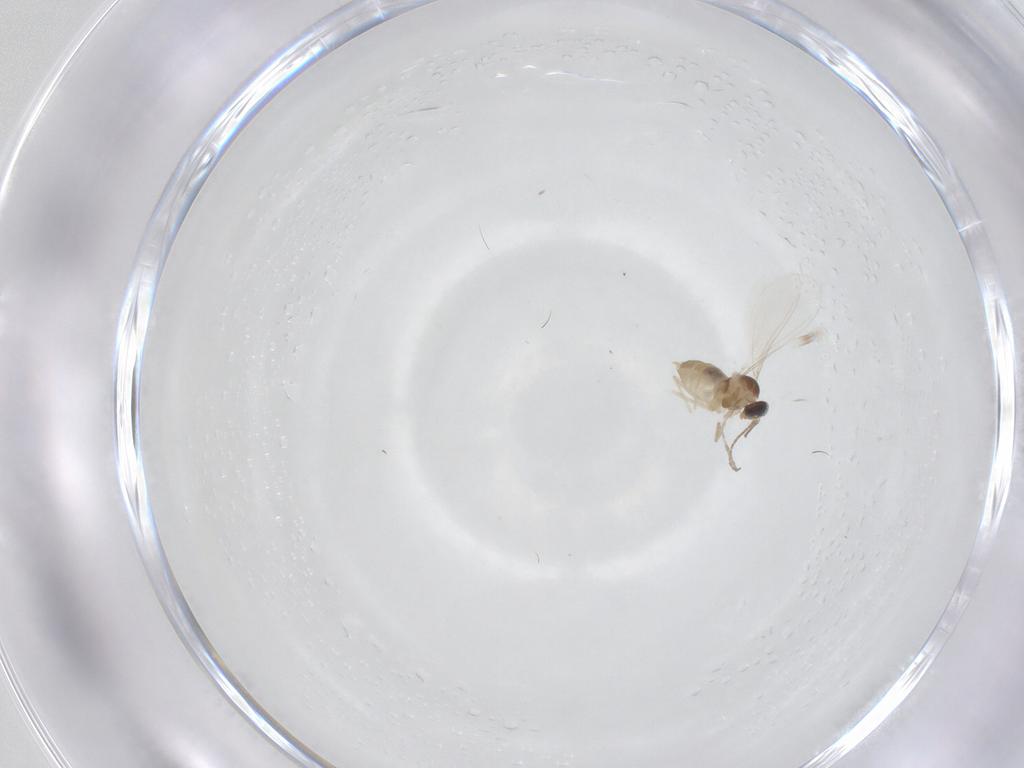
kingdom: Animalia
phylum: Arthropoda
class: Insecta
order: Diptera
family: Cecidomyiidae
